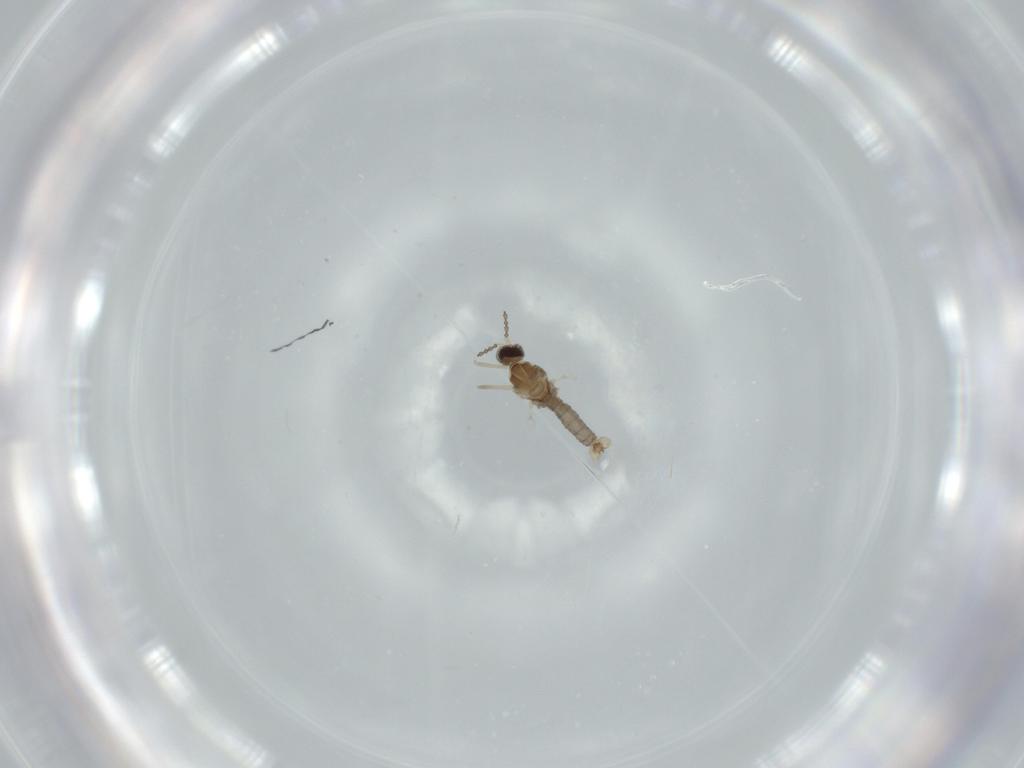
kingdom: Animalia
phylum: Arthropoda
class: Insecta
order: Diptera
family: Cecidomyiidae
